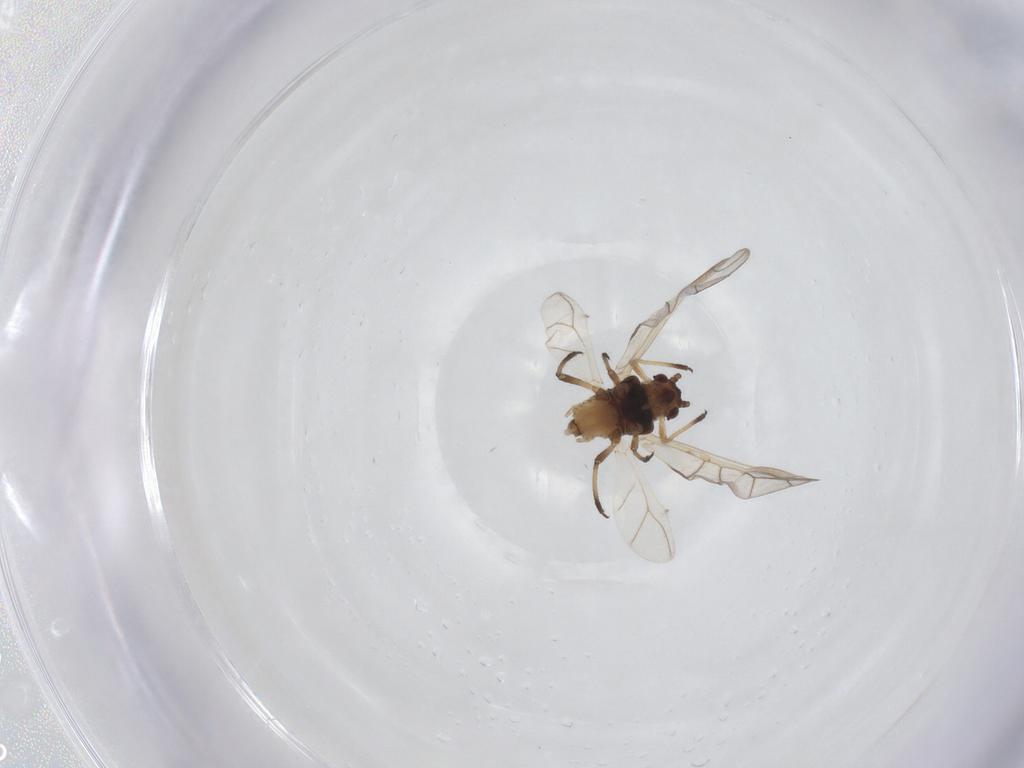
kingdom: Animalia
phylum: Arthropoda
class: Insecta
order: Hemiptera
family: Aphididae
